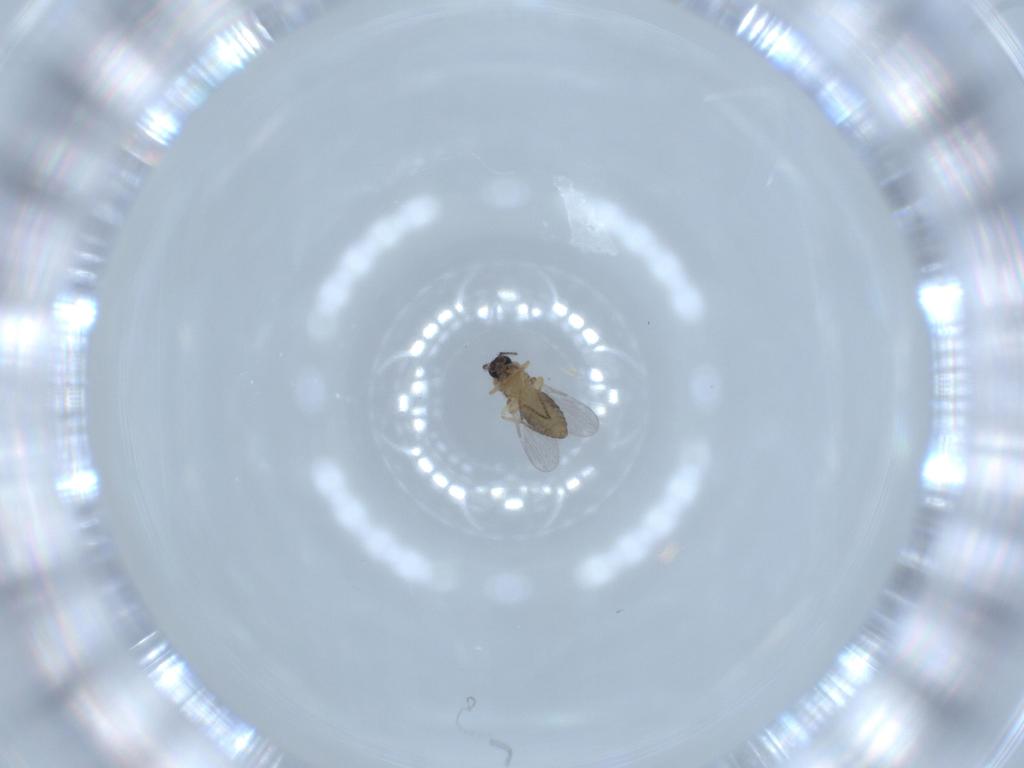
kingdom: Animalia
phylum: Arthropoda
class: Insecta
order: Diptera
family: Ceratopogonidae
